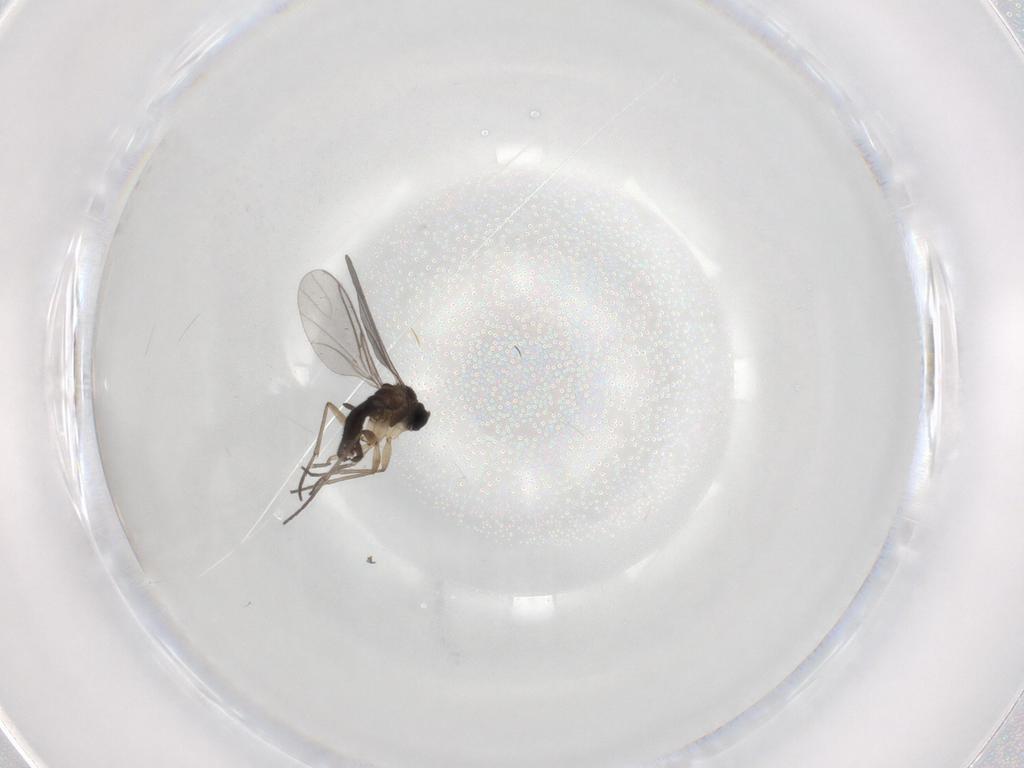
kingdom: Animalia
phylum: Arthropoda
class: Insecta
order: Diptera
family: Sciaridae
